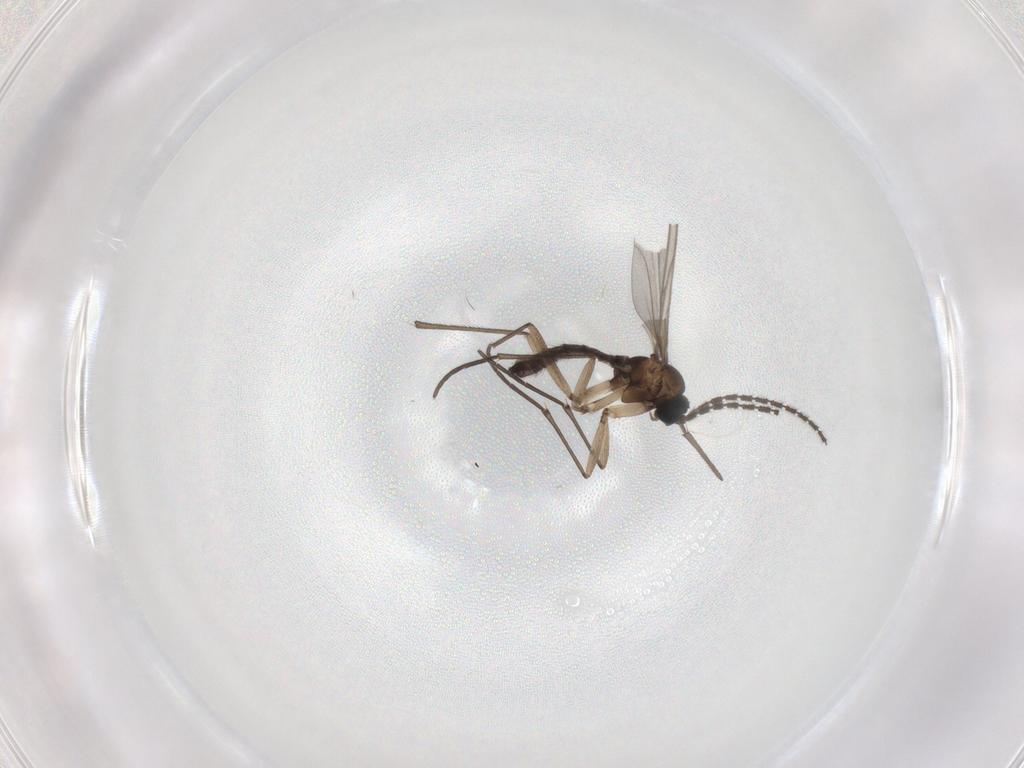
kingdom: Animalia
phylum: Arthropoda
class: Insecta
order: Diptera
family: Sciaridae
